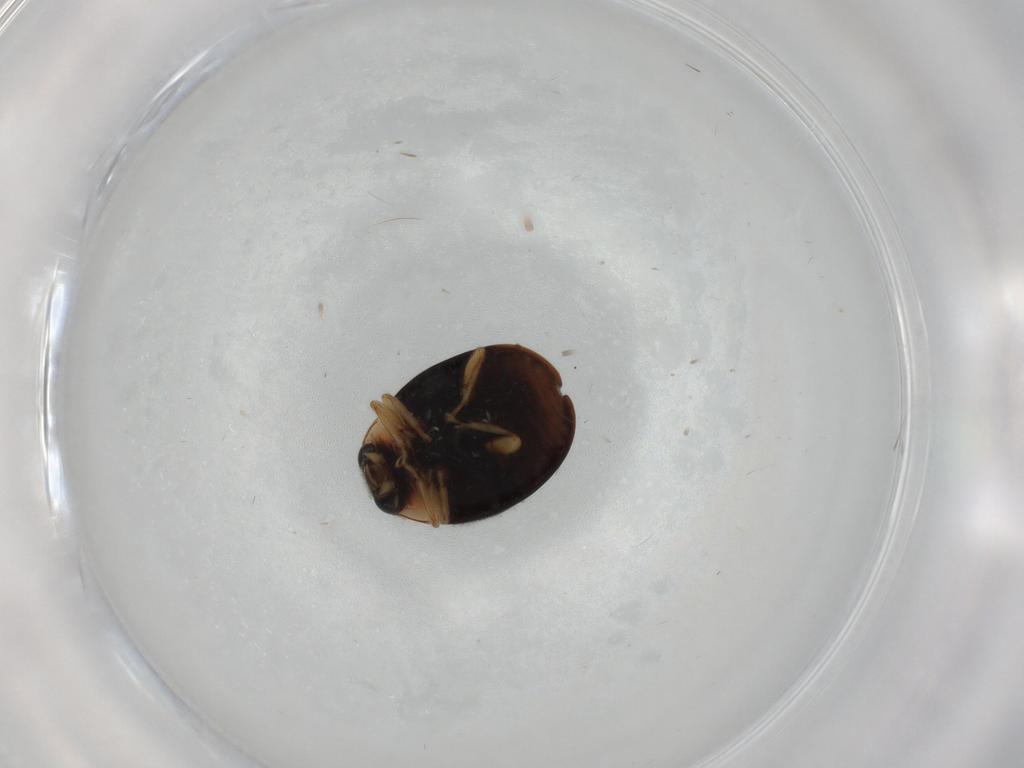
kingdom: Animalia
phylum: Arthropoda
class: Insecta
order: Coleoptera
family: Coccinellidae
